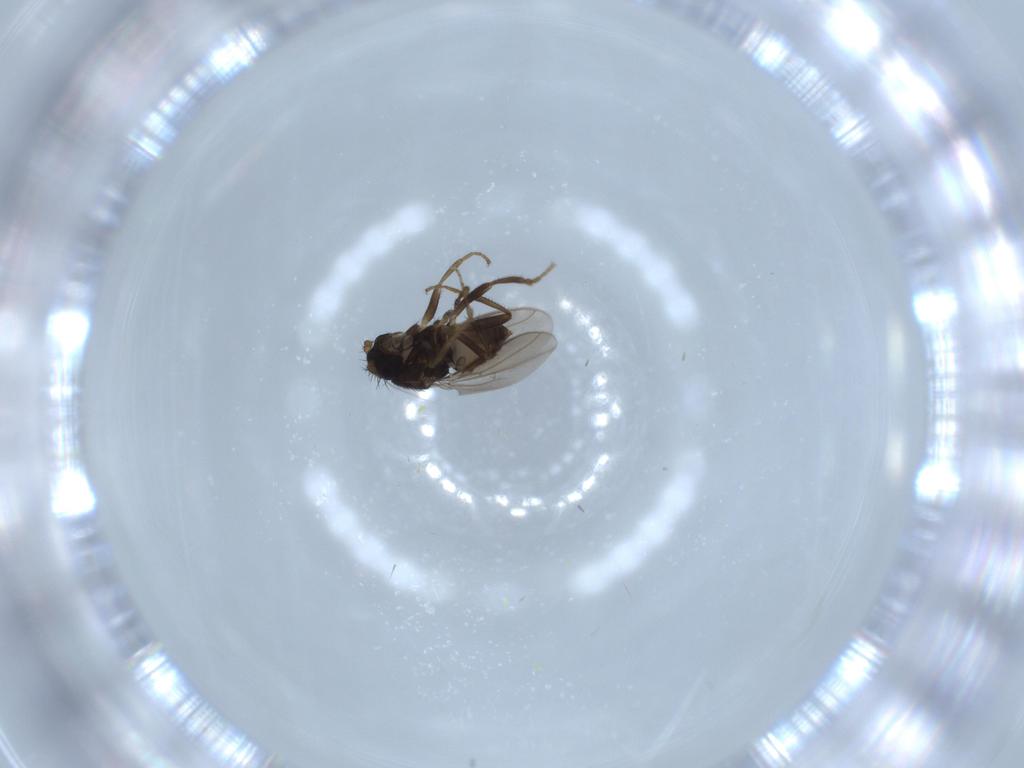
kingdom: Animalia
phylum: Arthropoda
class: Insecta
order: Diptera
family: Sphaeroceridae
